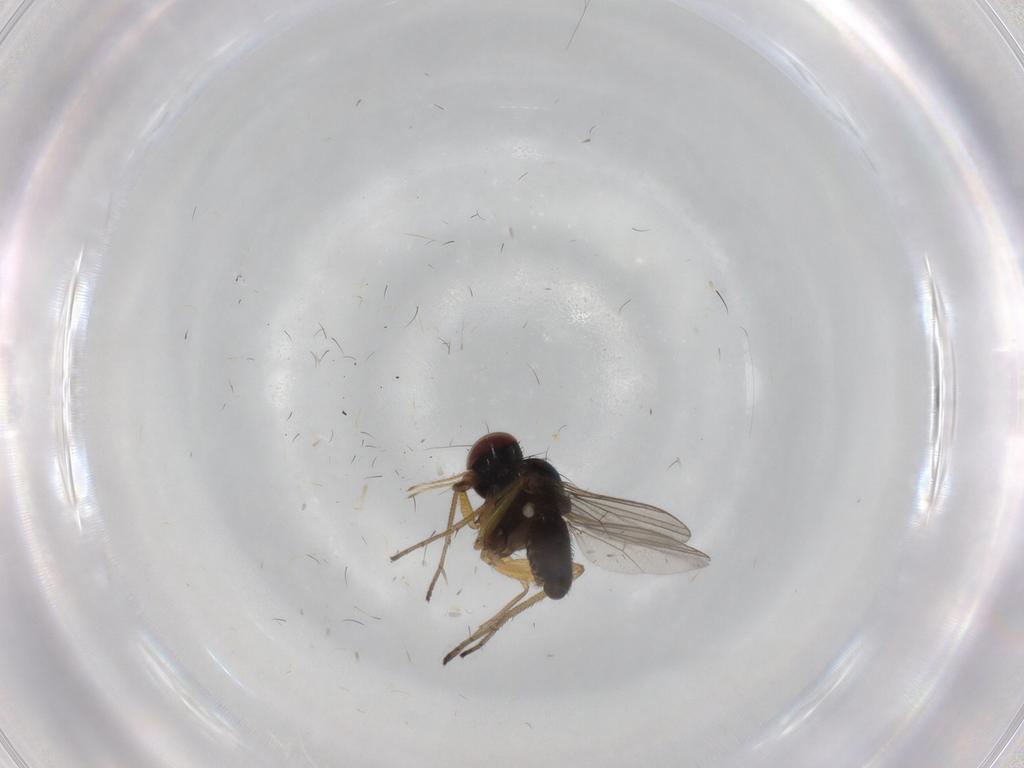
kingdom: Animalia
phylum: Arthropoda
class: Insecta
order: Diptera
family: Dolichopodidae
